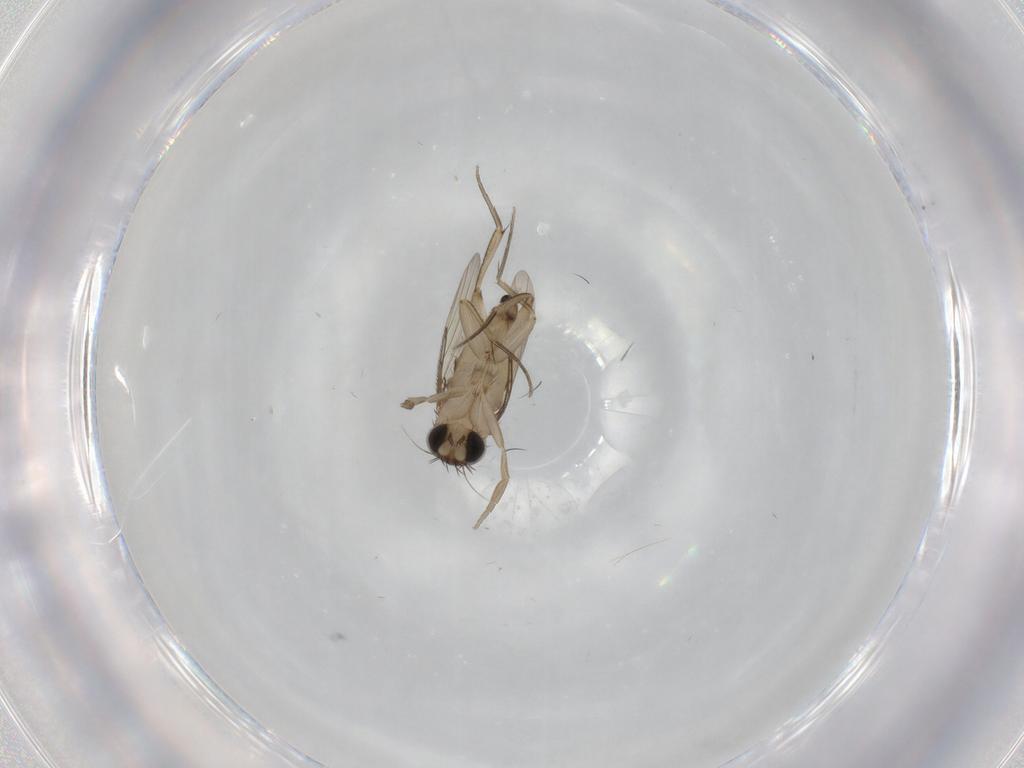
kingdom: Animalia
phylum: Arthropoda
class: Insecta
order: Diptera
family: Phoridae
